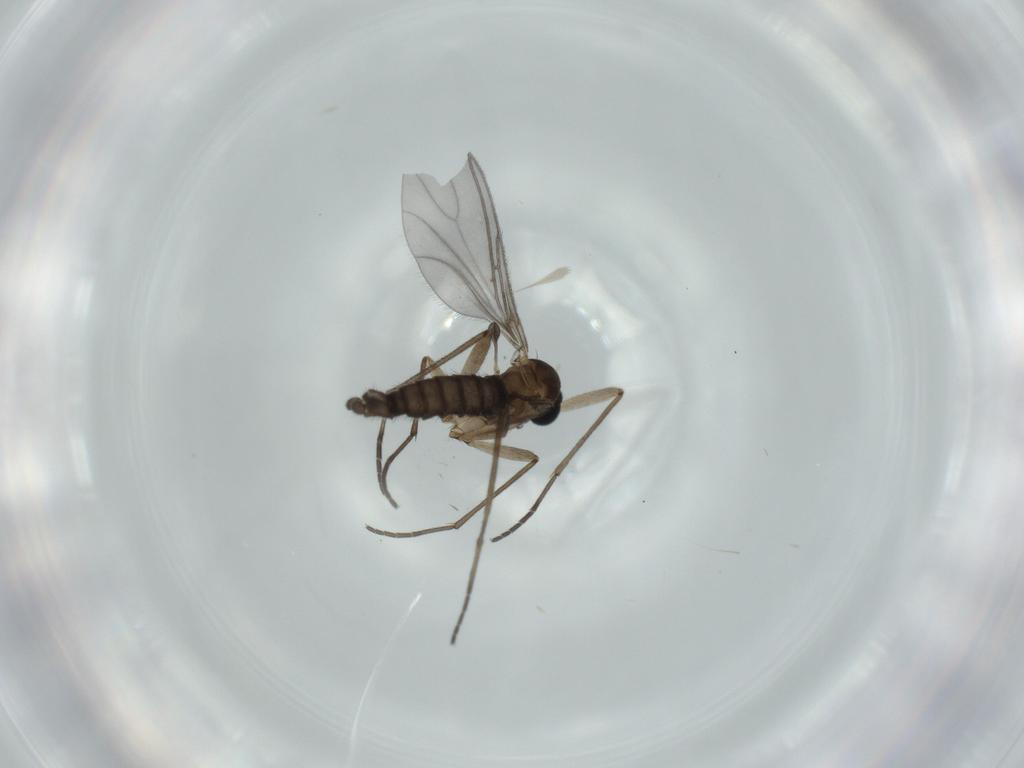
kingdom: Animalia
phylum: Arthropoda
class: Insecta
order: Diptera
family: Sciaridae
